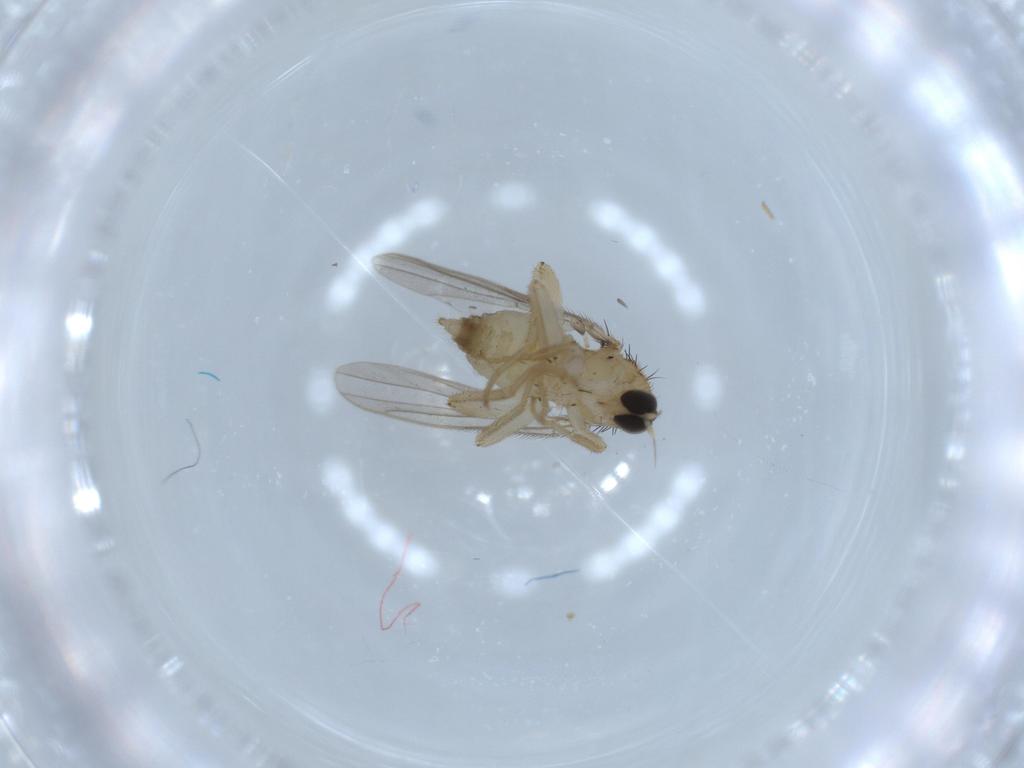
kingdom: Animalia
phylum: Arthropoda
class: Insecta
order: Diptera
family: Hybotidae
